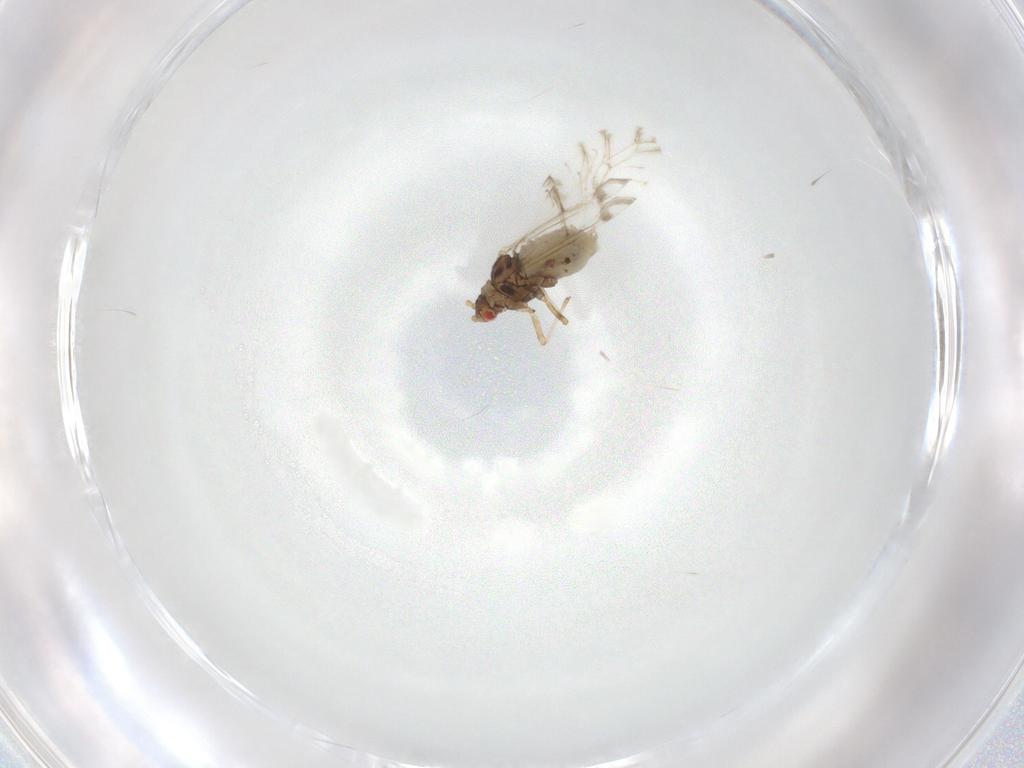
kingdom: Animalia
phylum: Arthropoda
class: Insecta
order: Hemiptera
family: Aphididae
